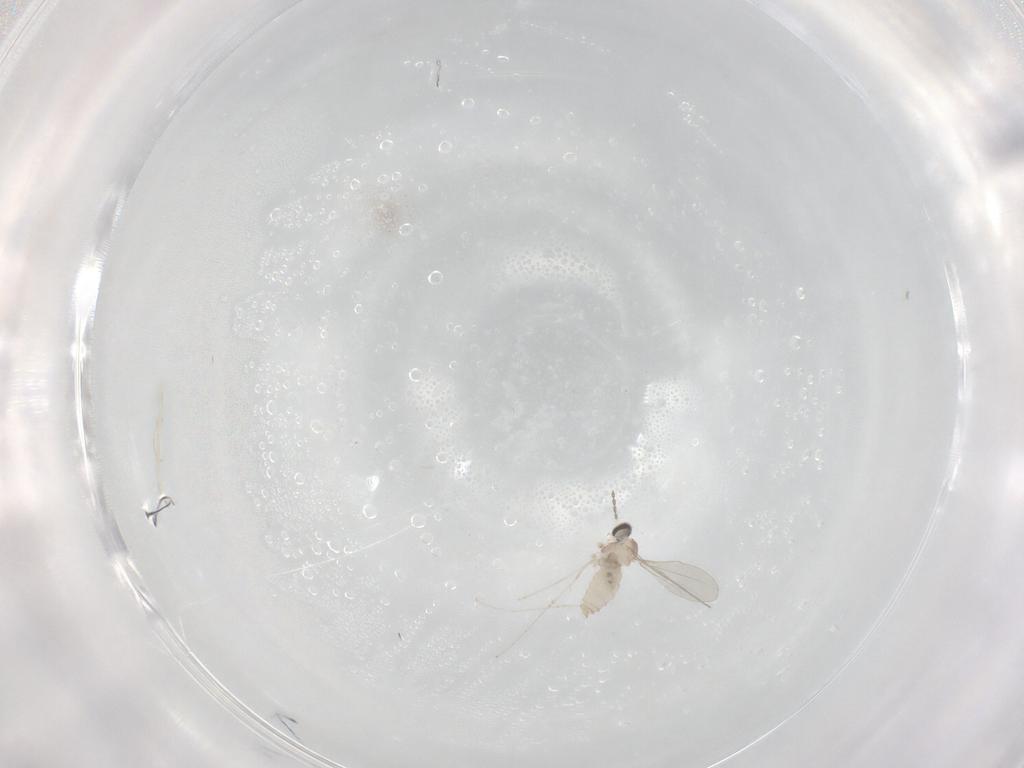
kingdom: Animalia
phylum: Arthropoda
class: Insecta
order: Diptera
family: Cecidomyiidae
